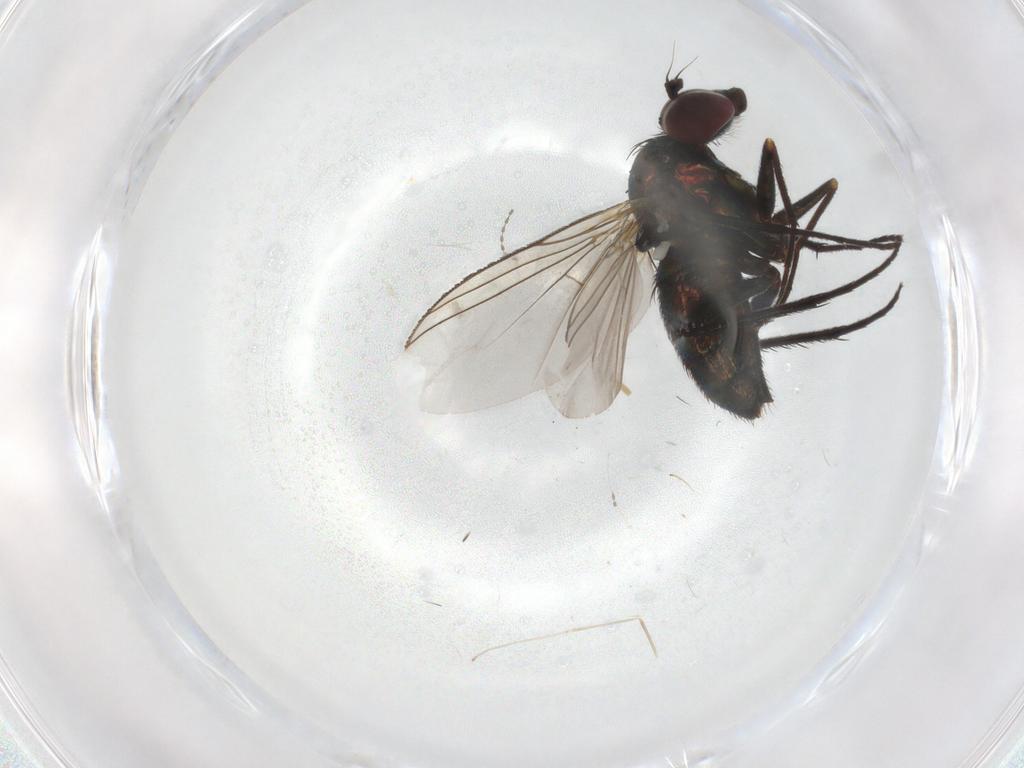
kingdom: Animalia
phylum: Arthropoda
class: Insecta
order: Diptera
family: Dolichopodidae
